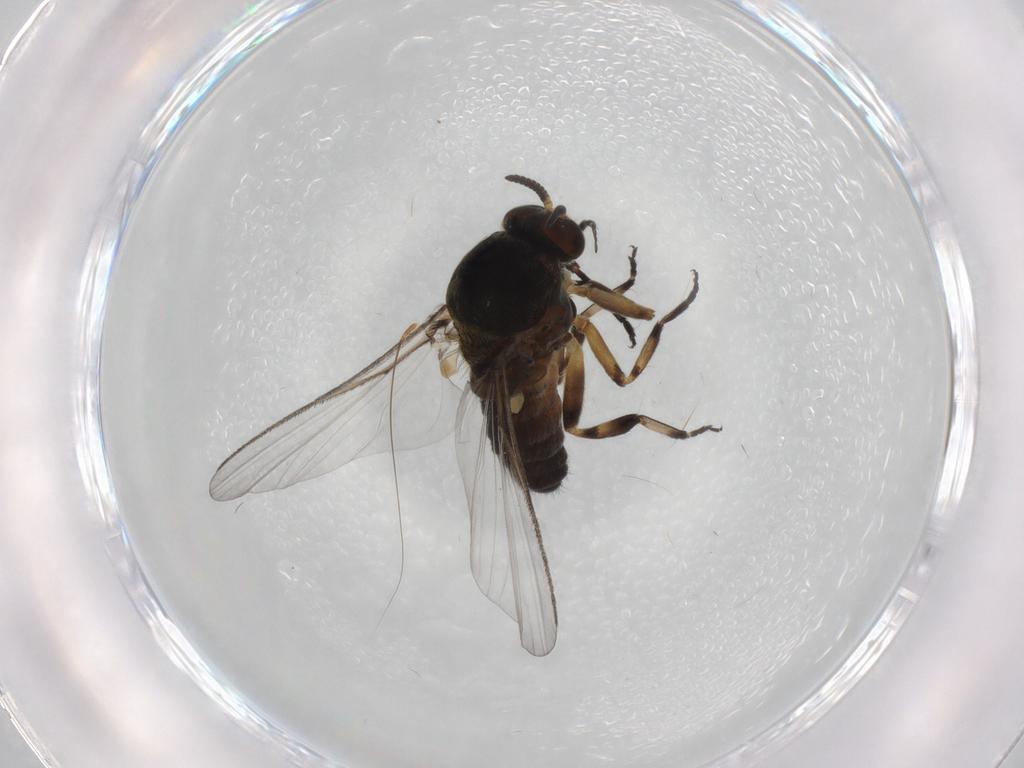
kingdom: Animalia
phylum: Arthropoda
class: Insecta
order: Diptera
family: Simuliidae
